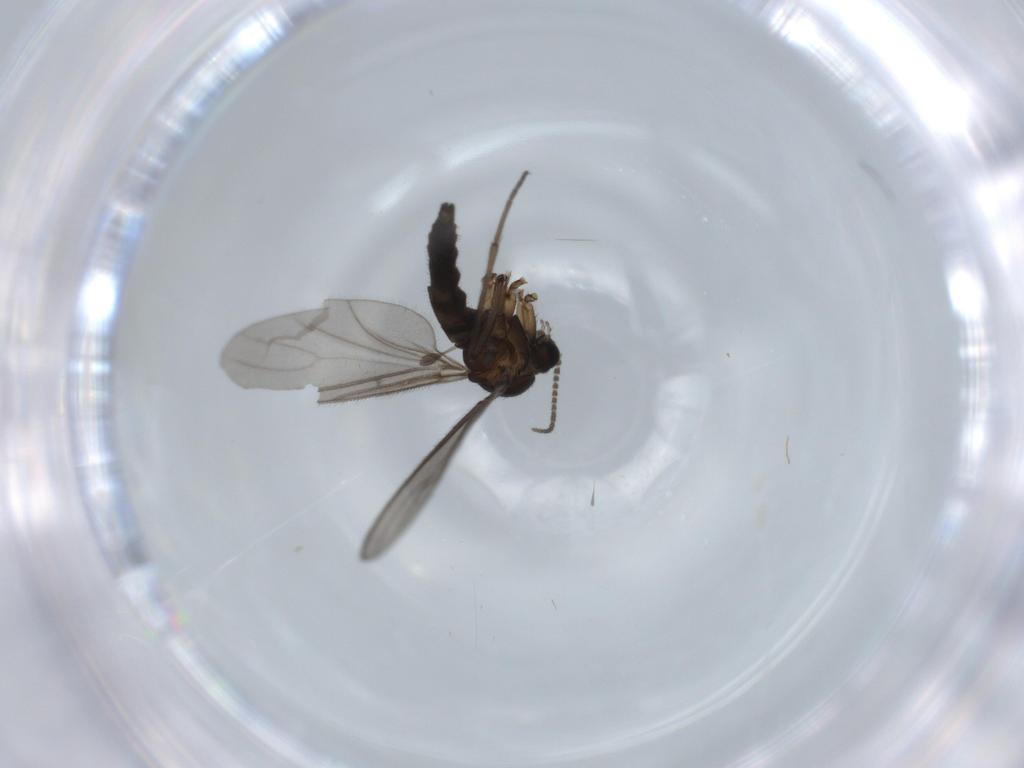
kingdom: Animalia
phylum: Arthropoda
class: Insecta
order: Diptera
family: Sciaridae
